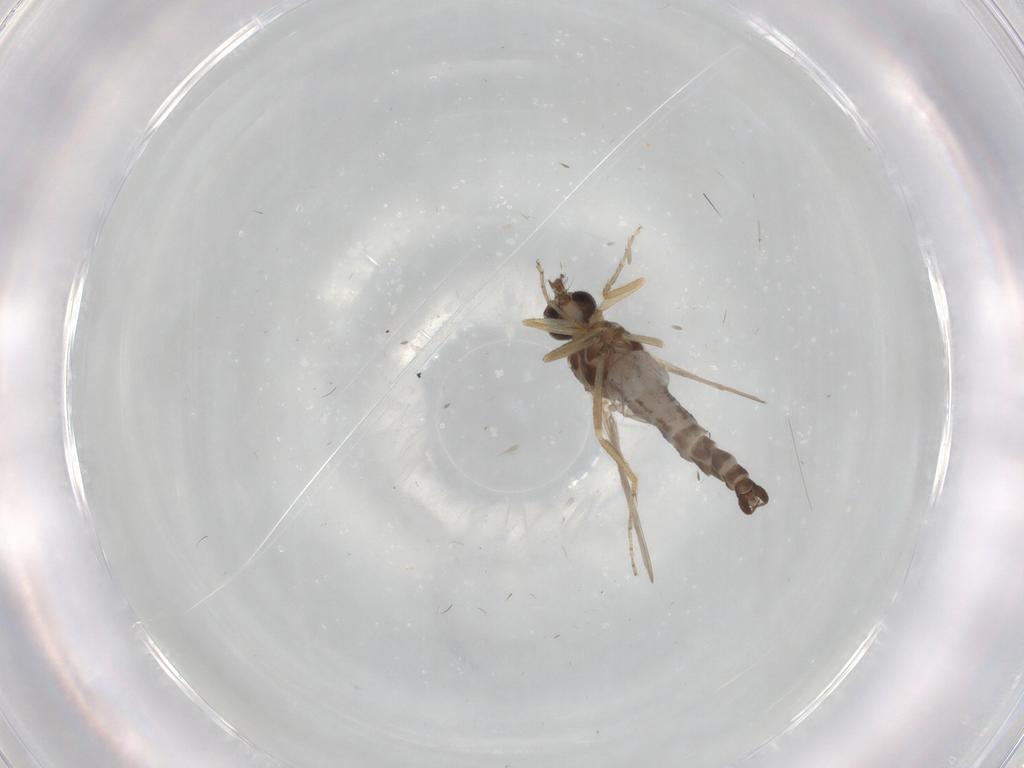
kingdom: Animalia
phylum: Arthropoda
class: Insecta
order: Diptera
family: Ceratopogonidae
